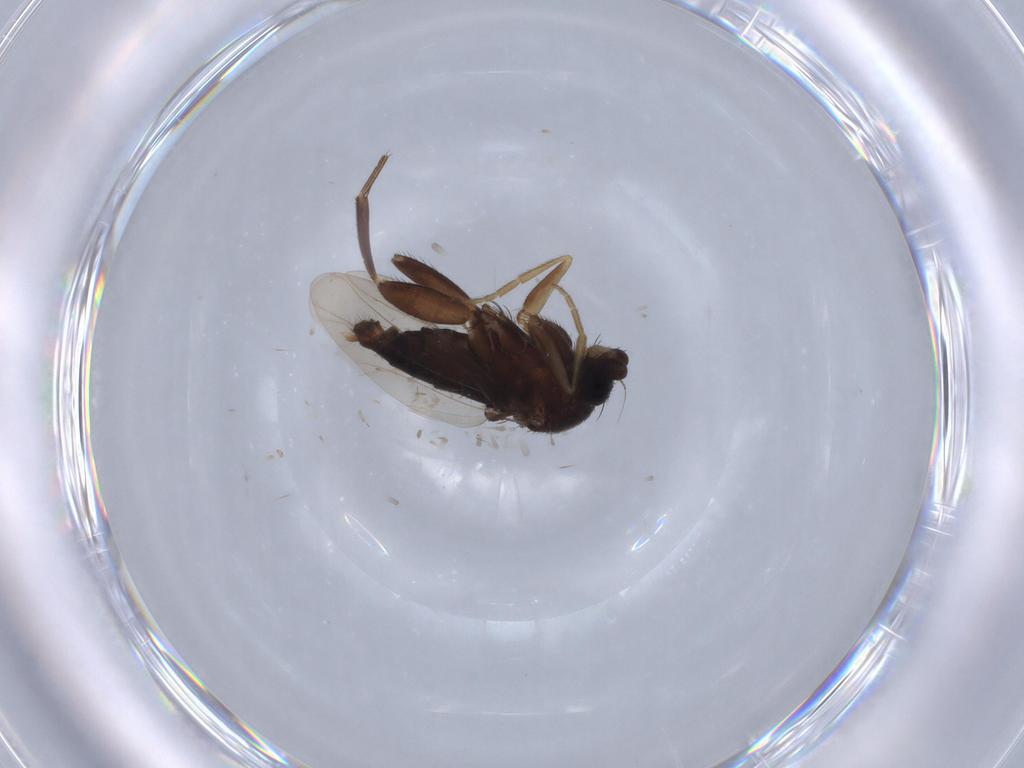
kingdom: Animalia
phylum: Arthropoda
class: Insecta
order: Diptera
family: Phoridae
